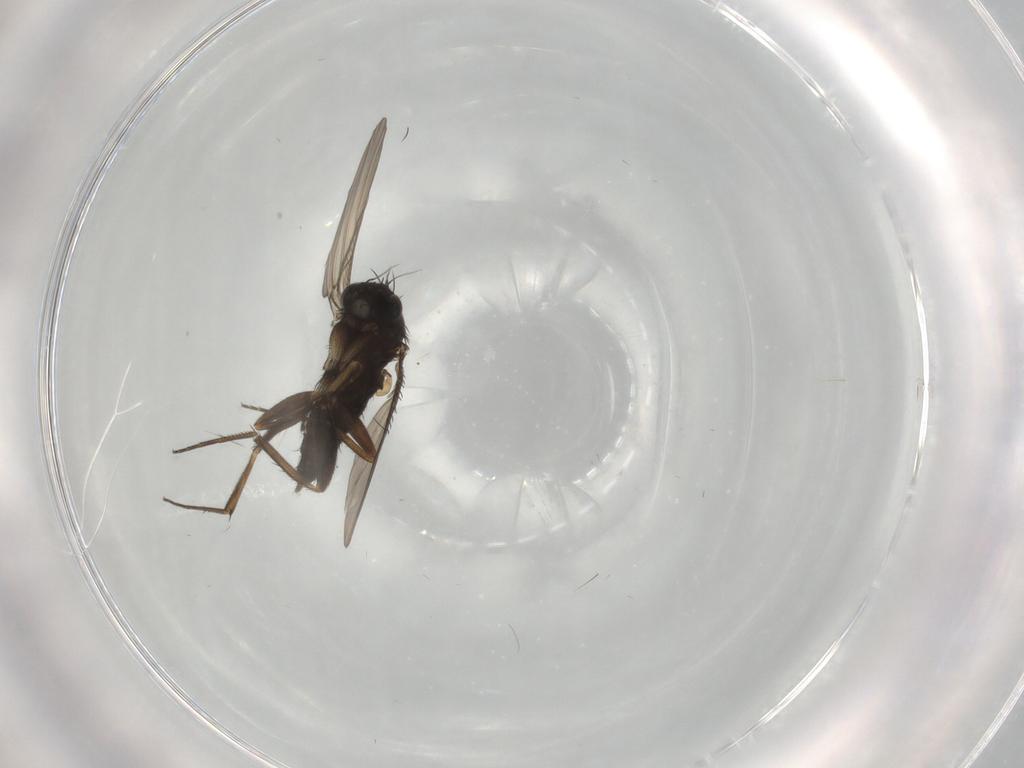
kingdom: Animalia
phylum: Arthropoda
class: Insecta
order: Diptera
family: Phoridae
